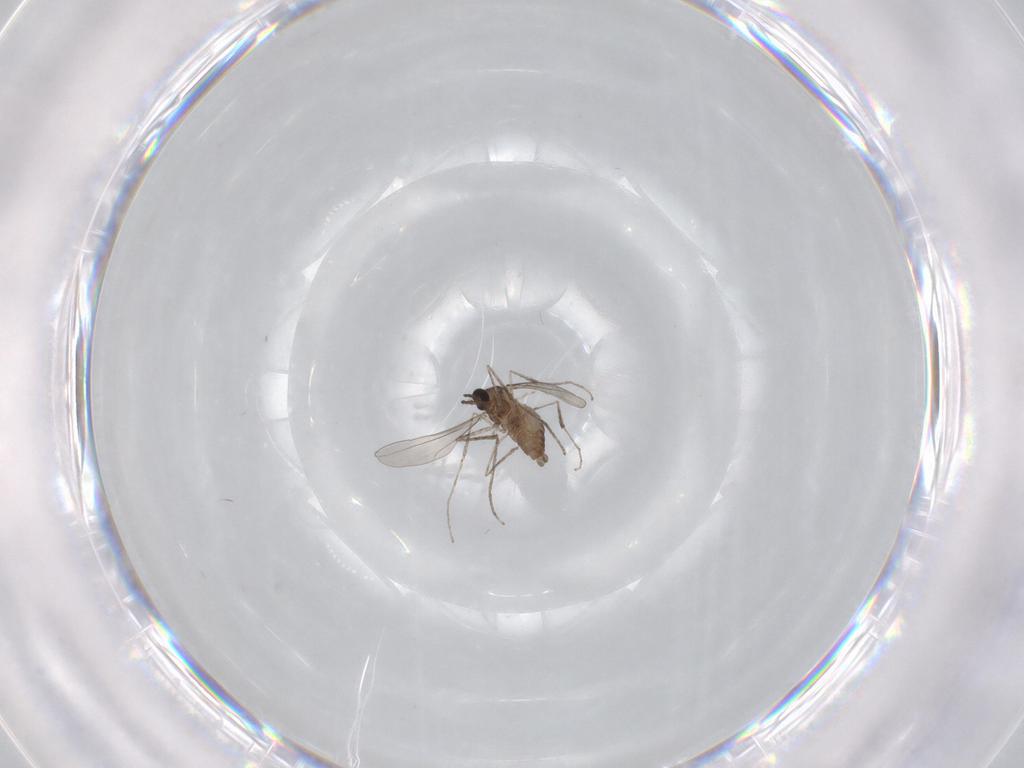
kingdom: Animalia
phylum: Arthropoda
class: Insecta
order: Diptera
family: Cecidomyiidae
